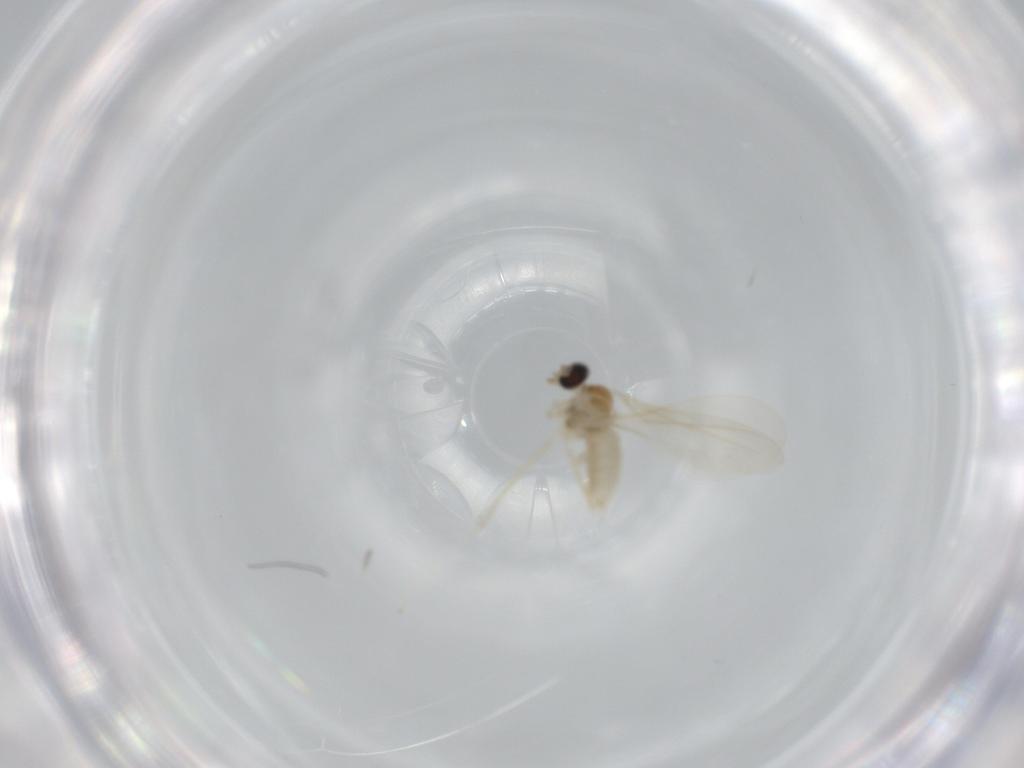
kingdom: Animalia
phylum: Arthropoda
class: Insecta
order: Diptera
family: Cecidomyiidae
